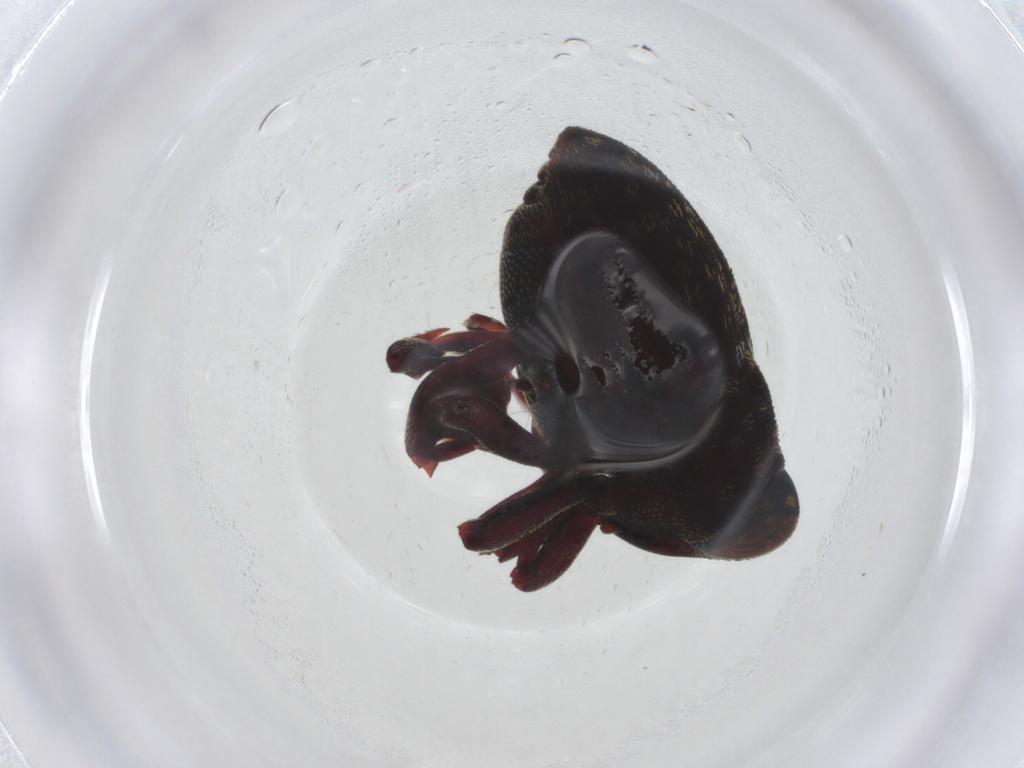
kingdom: Animalia
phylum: Arthropoda
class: Insecta
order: Coleoptera
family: Curculionidae
